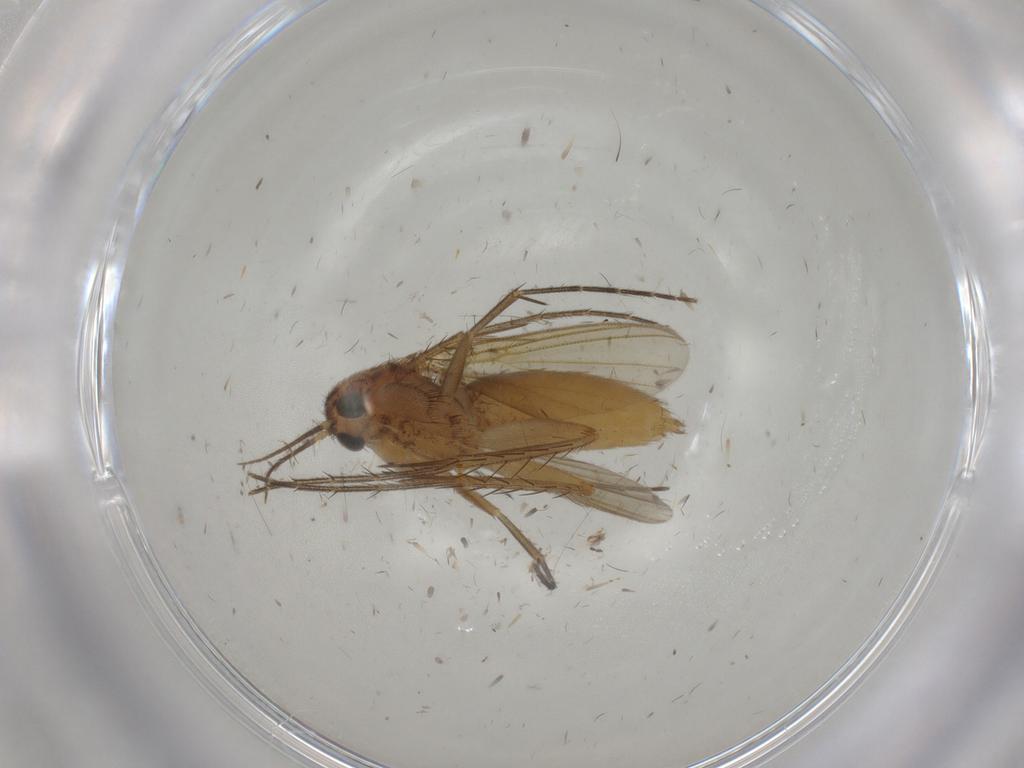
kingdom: Animalia
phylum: Arthropoda
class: Insecta
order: Diptera
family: Mycetophilidae
